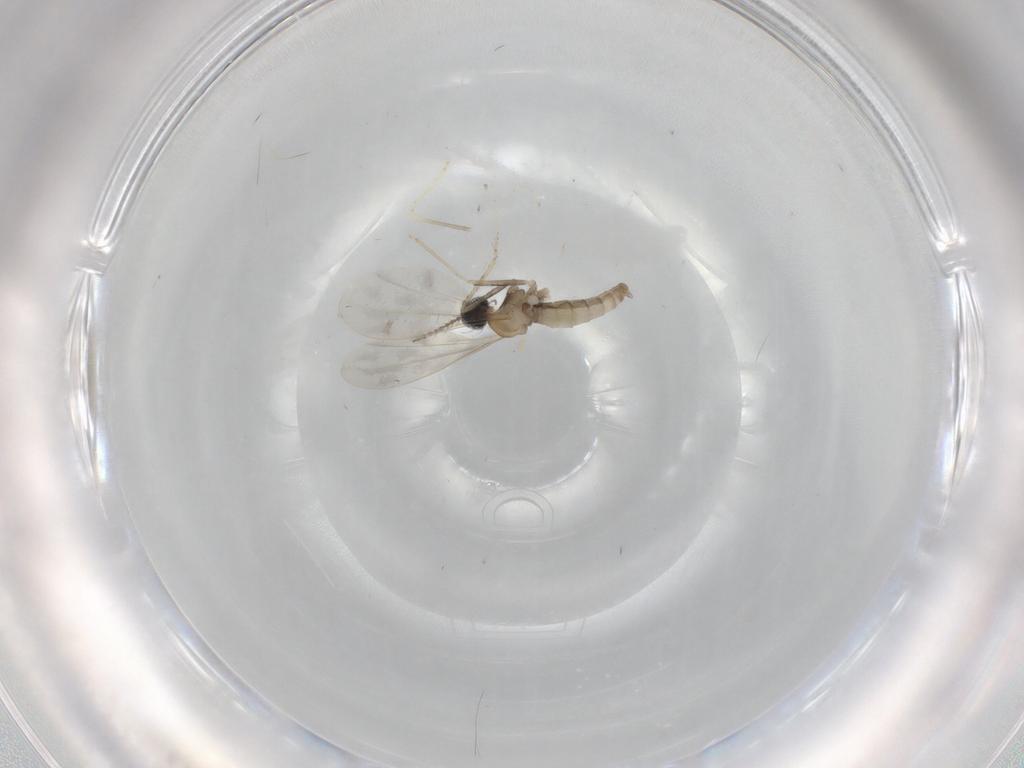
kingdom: Animalia
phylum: Arthropoda
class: Insecta
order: Diptera
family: Cecidomyiidae
